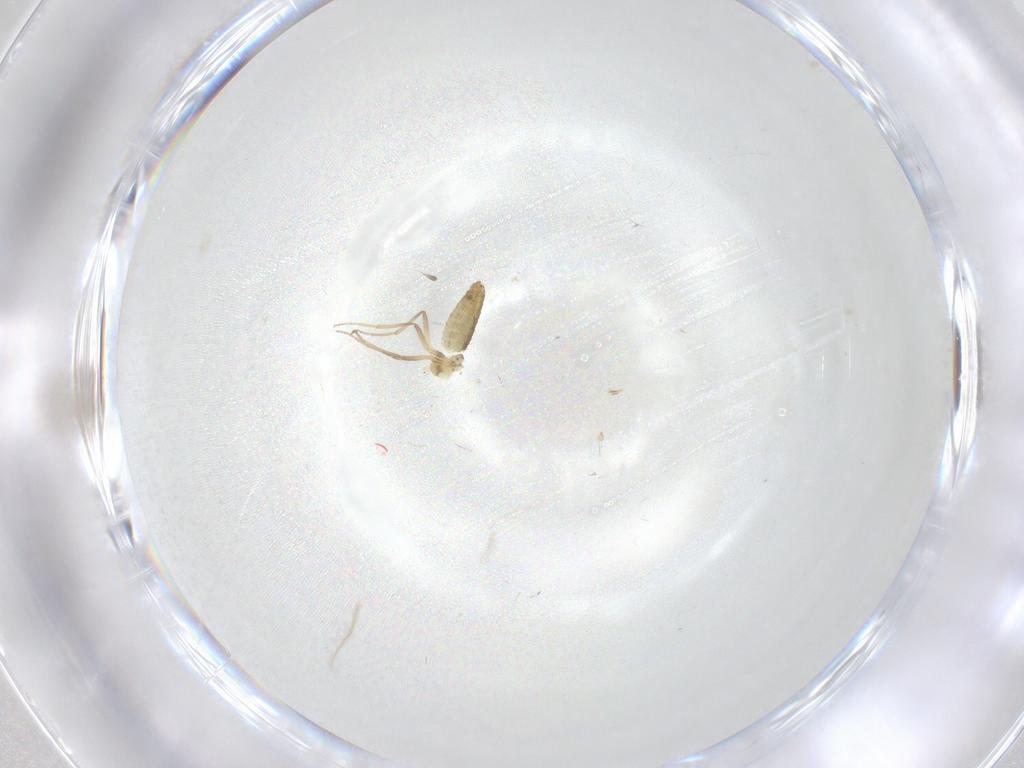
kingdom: Animalia
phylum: Arthropoda
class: Insecta
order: Diptera
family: Chironomidae
